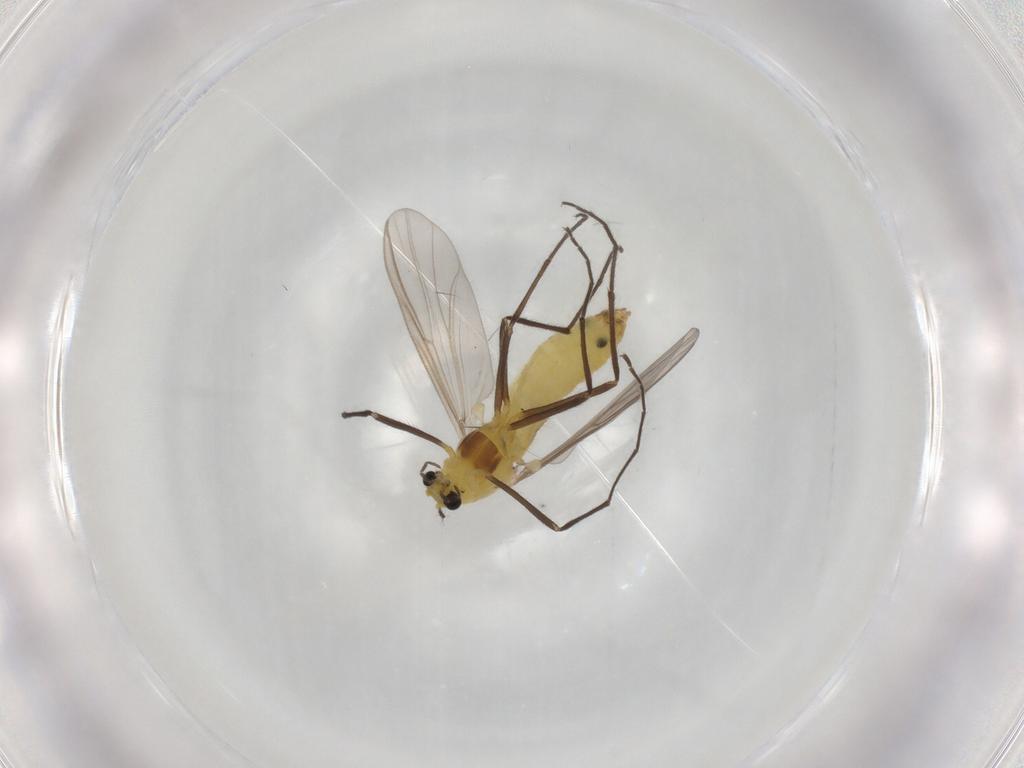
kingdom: Animalia
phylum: Arthropoda
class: Insecta
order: Diptera
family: Chironomidae
